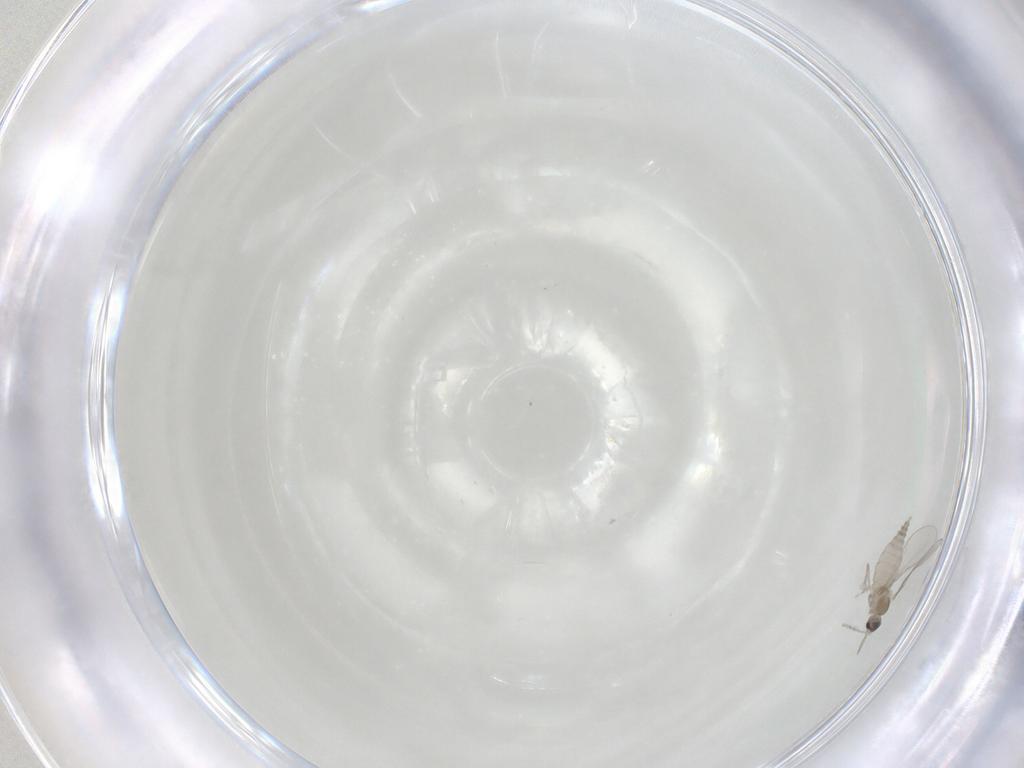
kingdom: Animalia
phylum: Arthropoda
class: Insecta
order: Diptera
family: Cecidomyiidae
